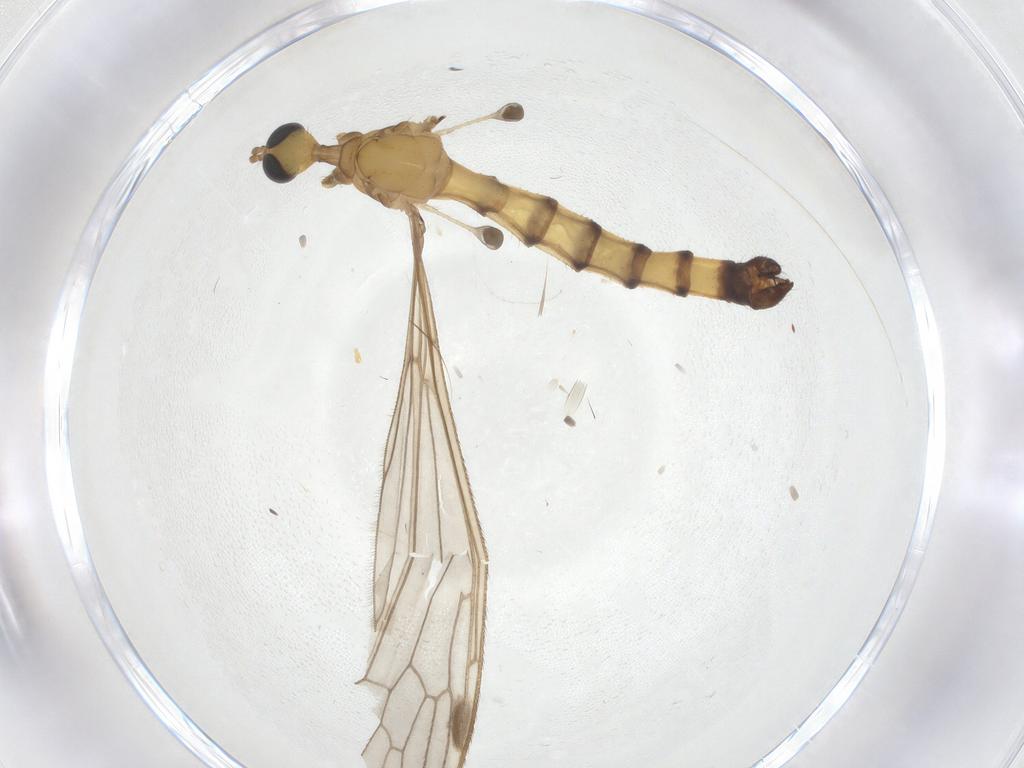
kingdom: Animalia
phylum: Arthropoda
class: Insecta
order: Diptera
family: Limoniidae
